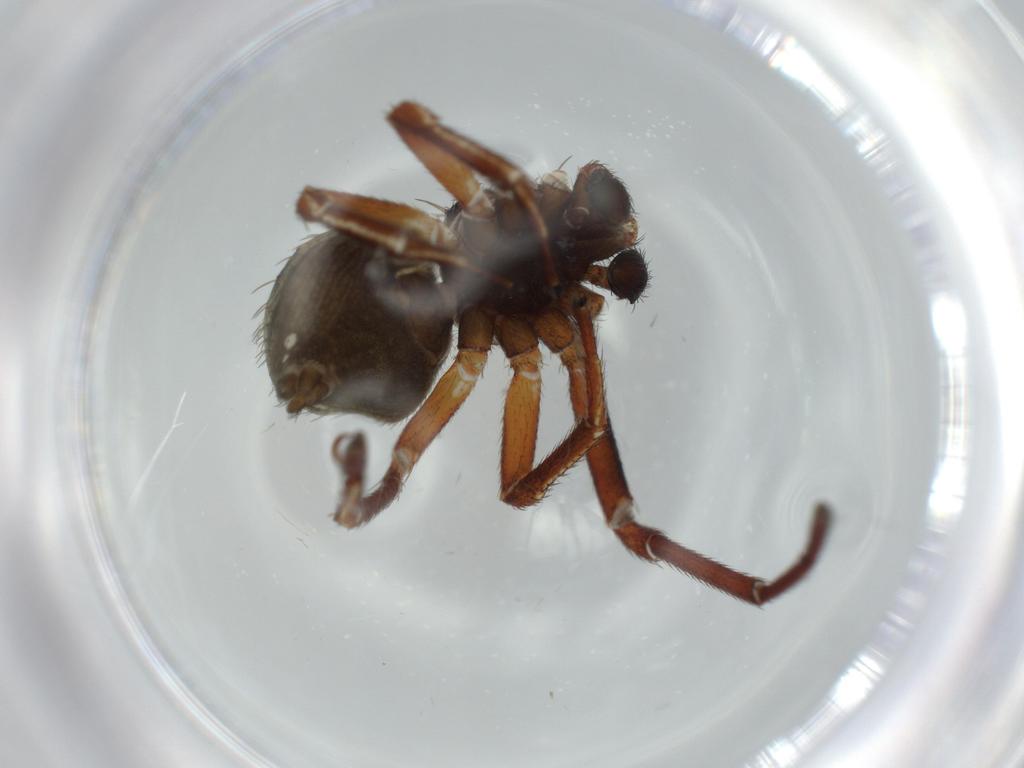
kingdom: Animalia
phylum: Arthropoda
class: Arachnida
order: Araneae
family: Thomisidae
